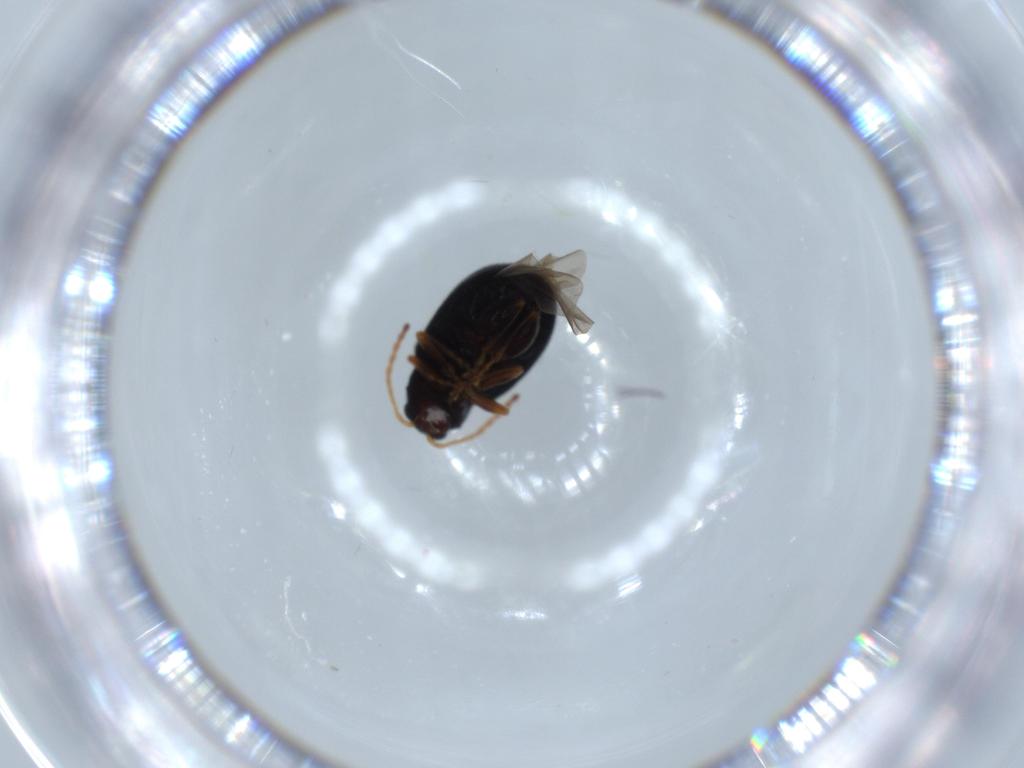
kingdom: Animalia
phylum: Arthropoda
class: Insecta
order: Coleoptera
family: Chrysomelidae
